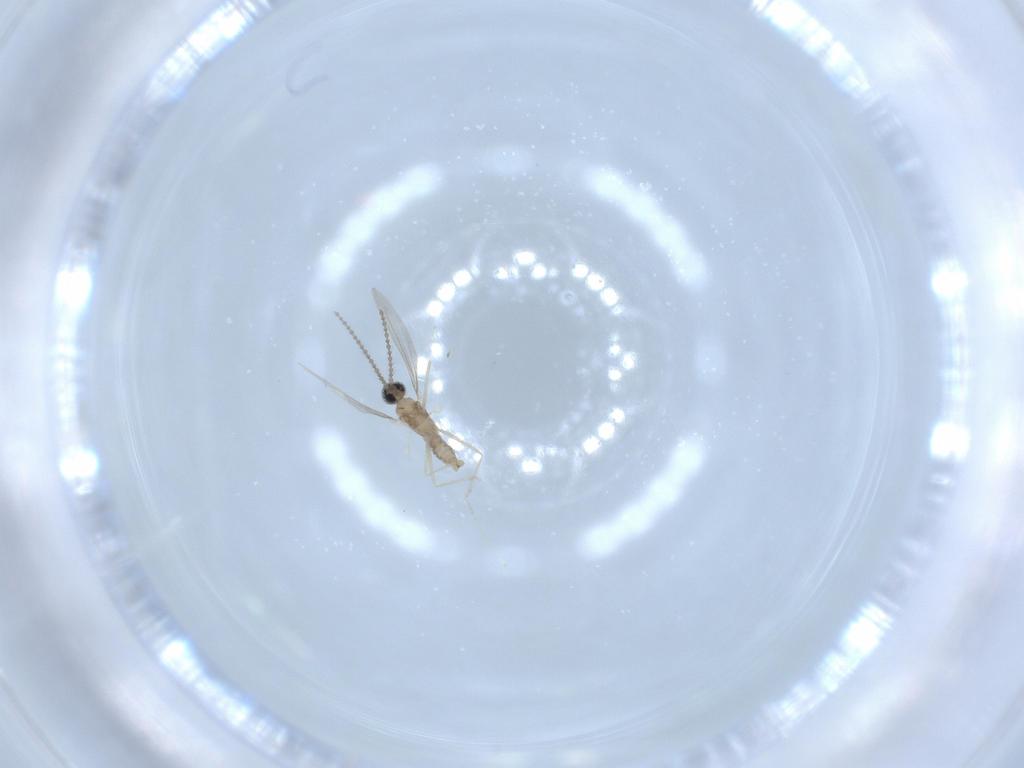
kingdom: Animalia
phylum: Arthropoda
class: Insecta
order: Diptera
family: Cecidomyiidae
